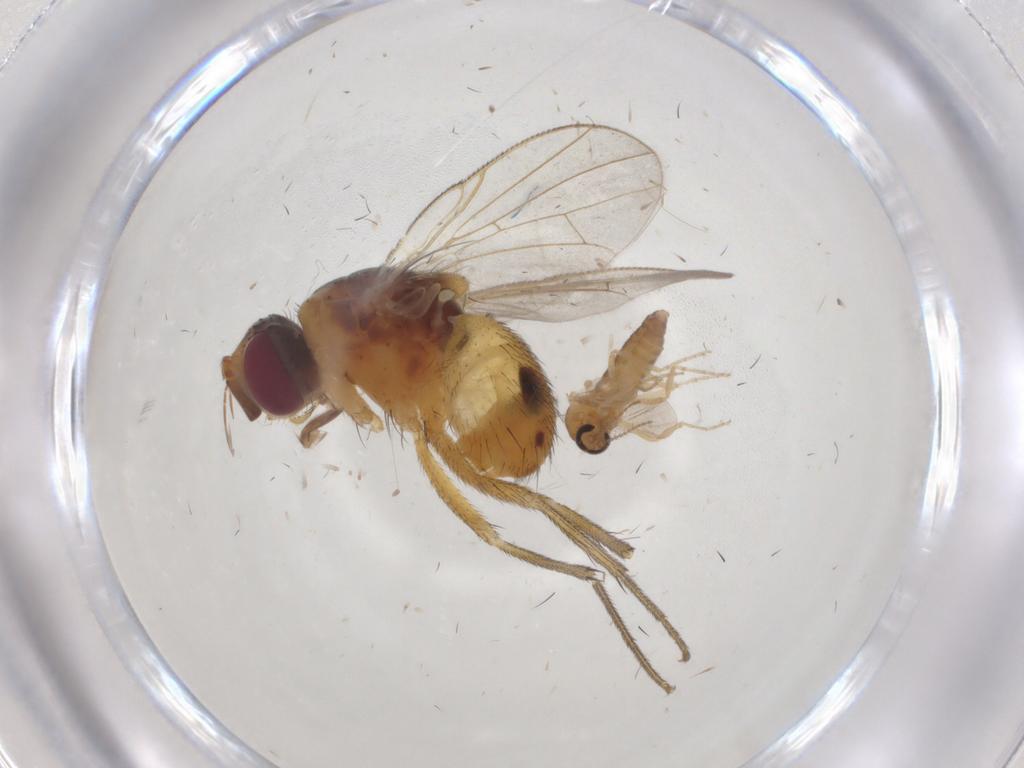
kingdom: Animalia
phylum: Arthropoda
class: Insecta
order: Diptera
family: Muscidae
